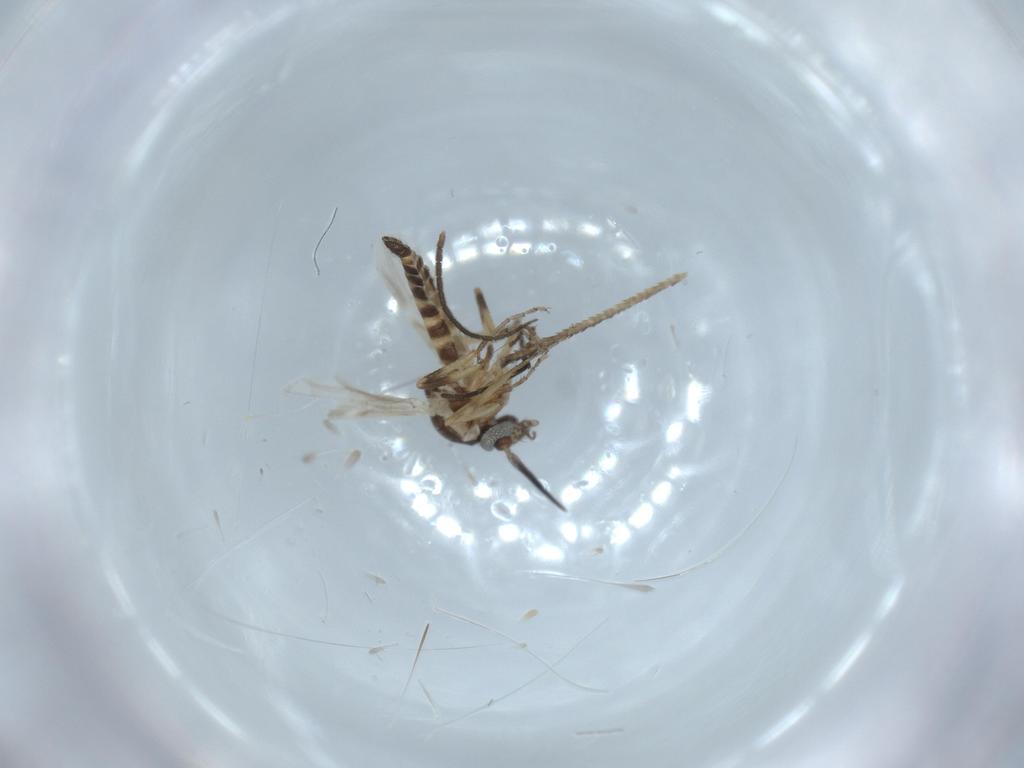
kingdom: Animalia
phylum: Arthropoda
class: Insecta
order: Diptera
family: Ceratopogonidae
